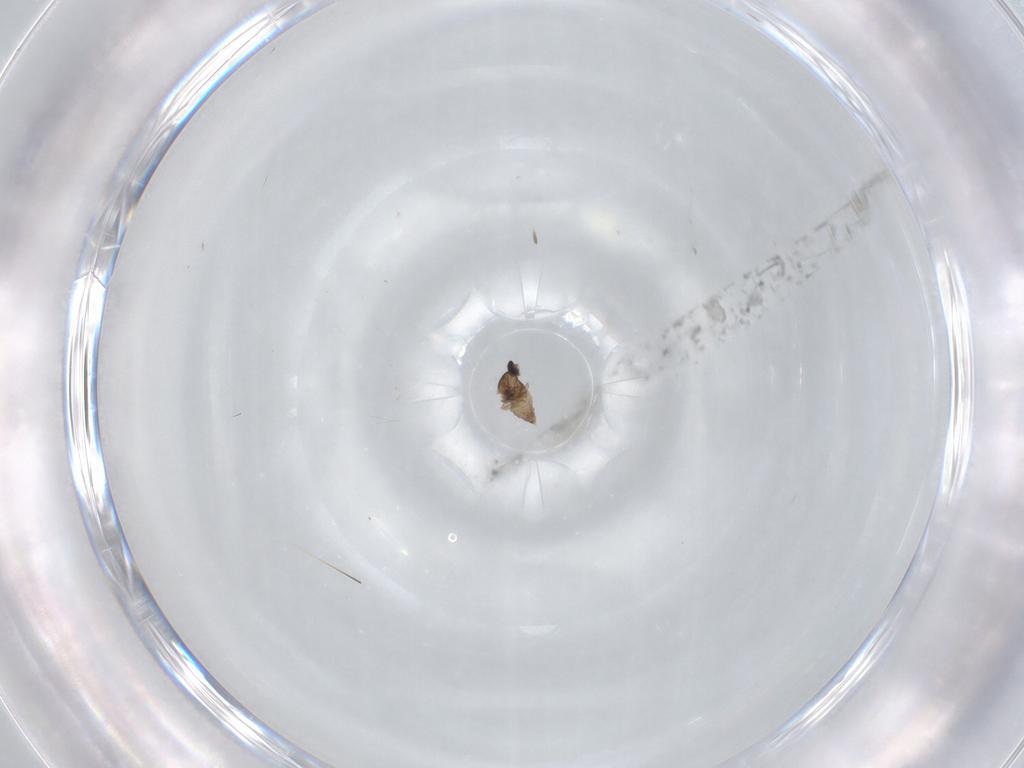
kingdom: Animalia
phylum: Arthropoda
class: Insecta
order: Diptera
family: Cecidomyiidae
